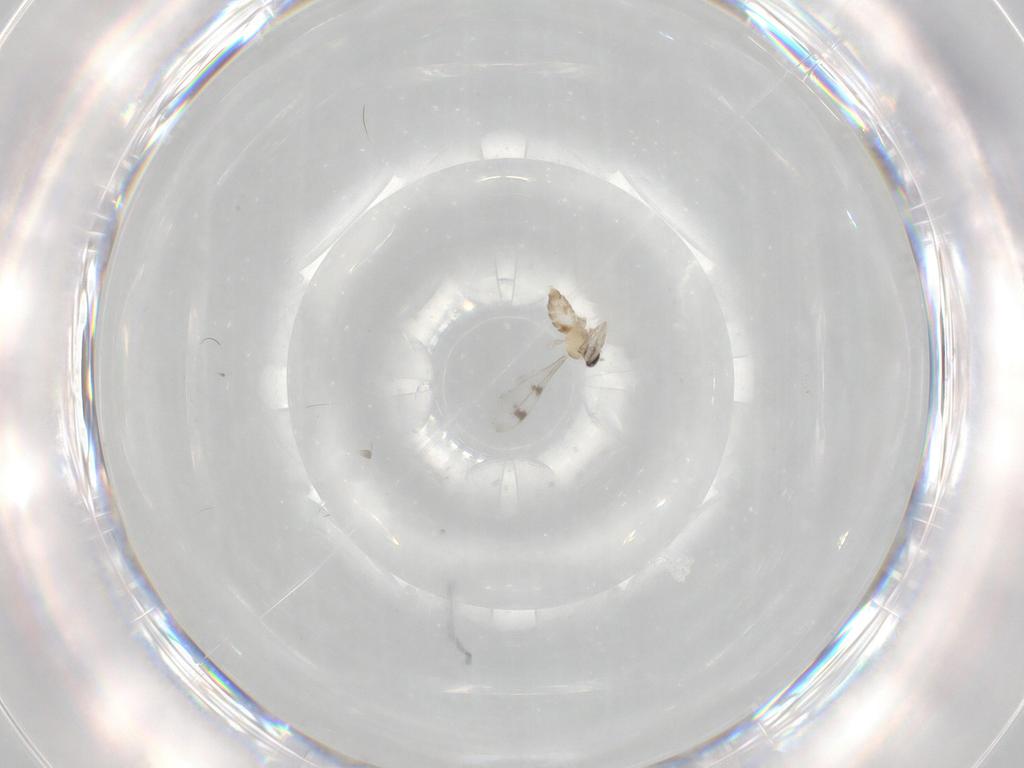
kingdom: Animalia
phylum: Arthropoda
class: Insecta
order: Diptera
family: Cecidomyiidae
